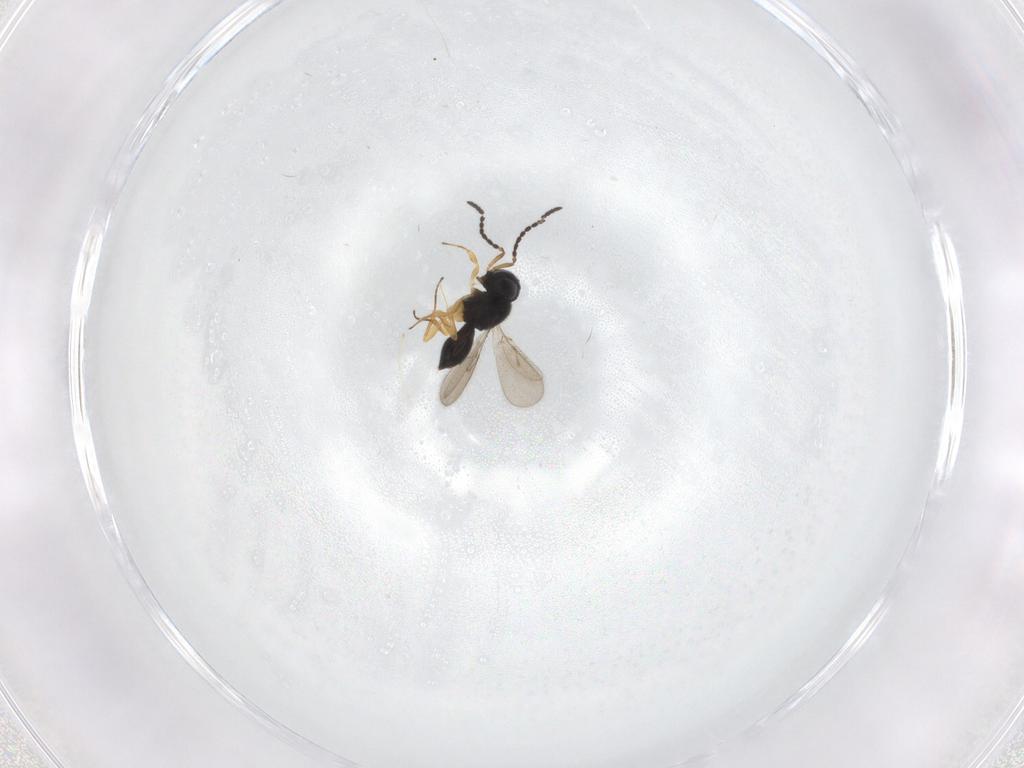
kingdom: Animalia
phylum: Arthropoda
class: Insecta
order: Hymenoptera
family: Scelionidae
